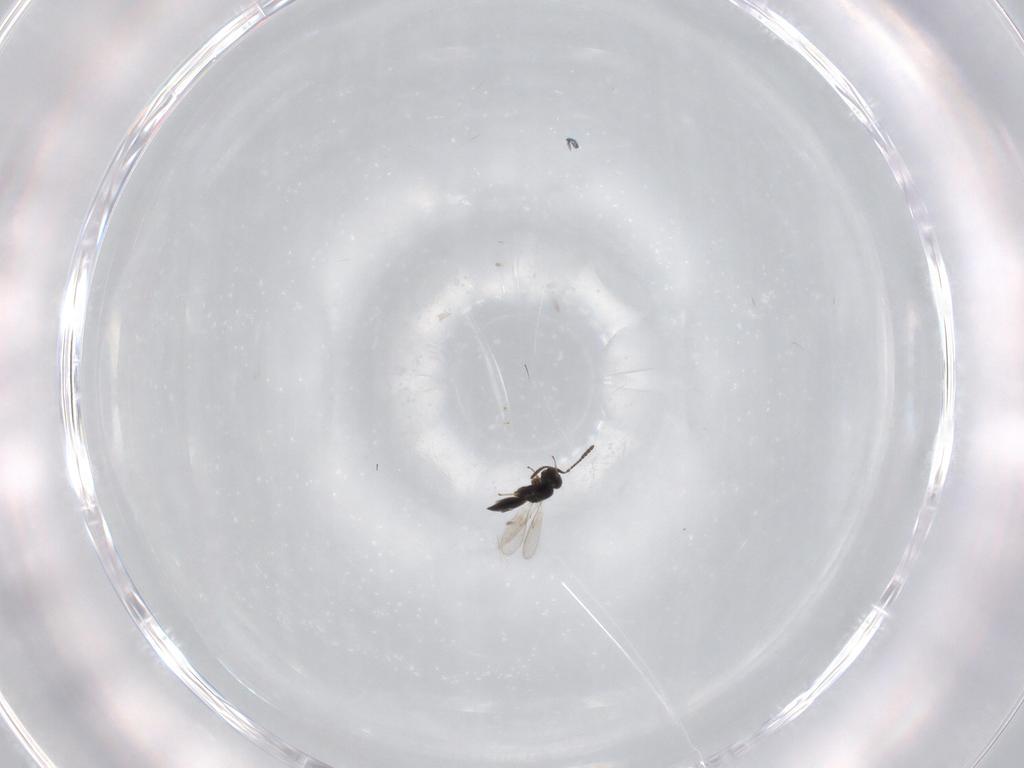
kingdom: Animalia
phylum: Arthropoda
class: Insecta
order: Hymenoptera
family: Scelionidae
